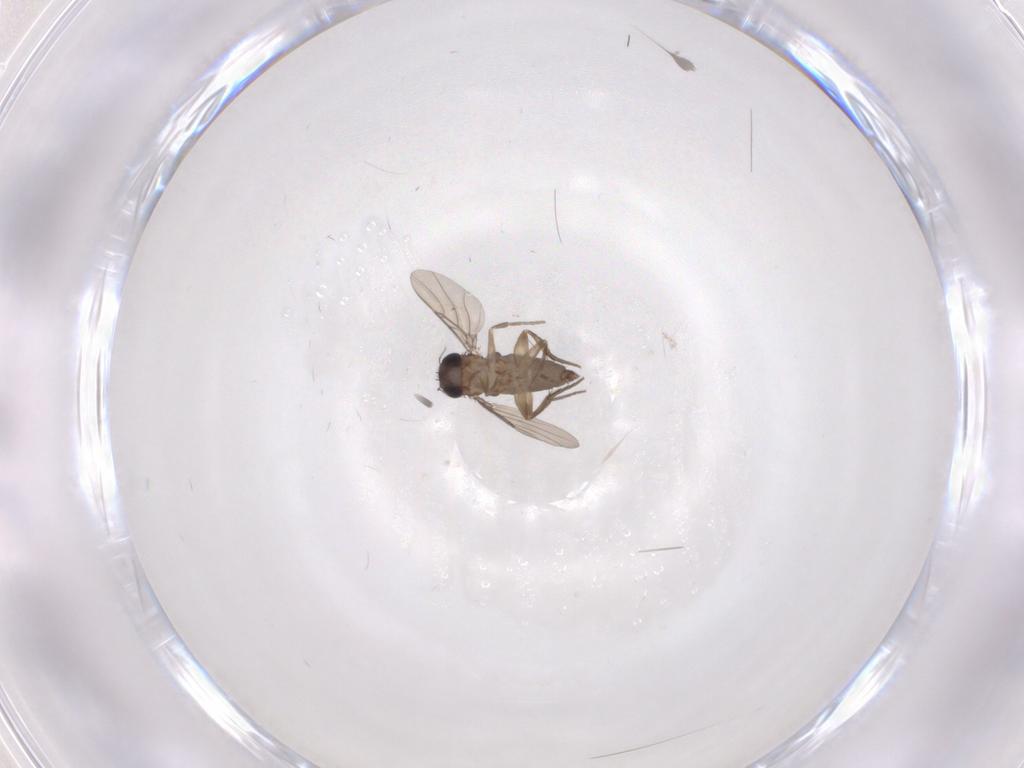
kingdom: Animalia
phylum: Arthropoda
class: Insecta
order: Diptera
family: Phoridae
